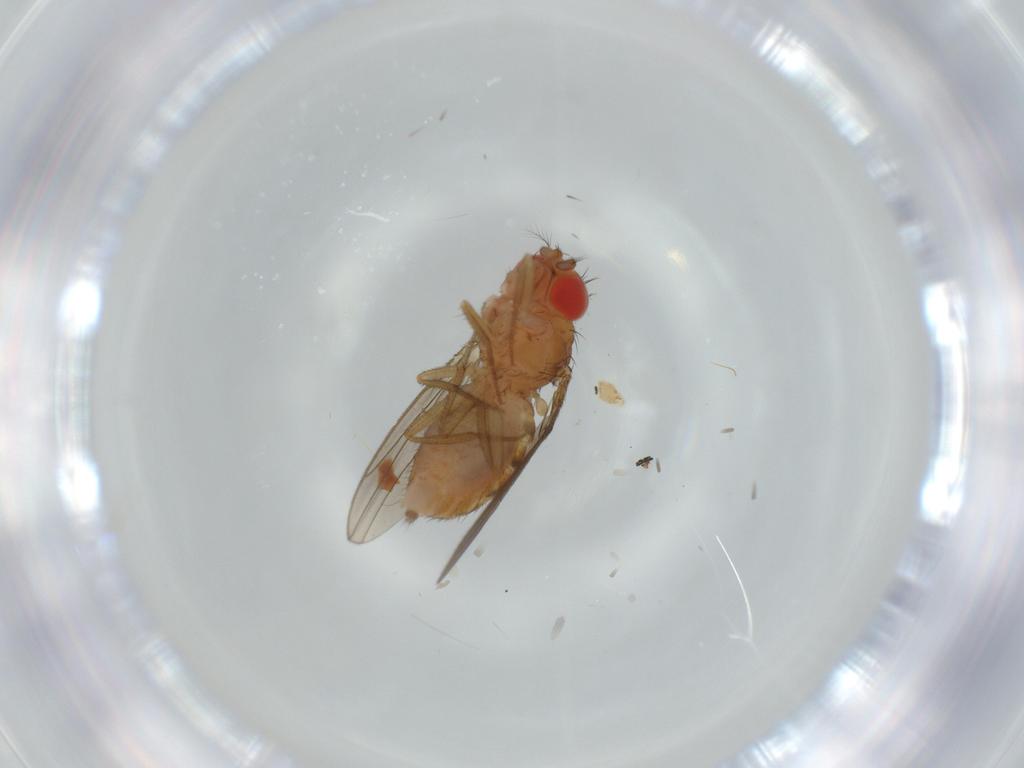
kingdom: Animalia
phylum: Arthropoda
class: Insecta
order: Diptera
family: Drosophilidae
